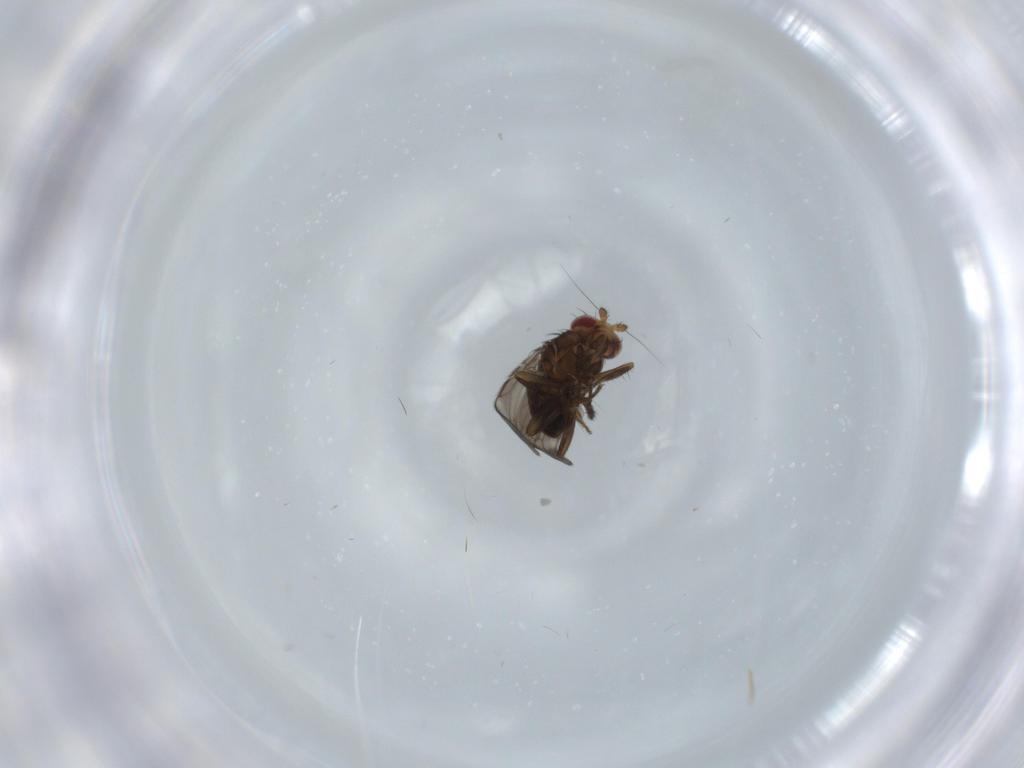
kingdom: Animalia
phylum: Arthropoda
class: Insecta
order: Diptera
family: Sphaeroceridae
